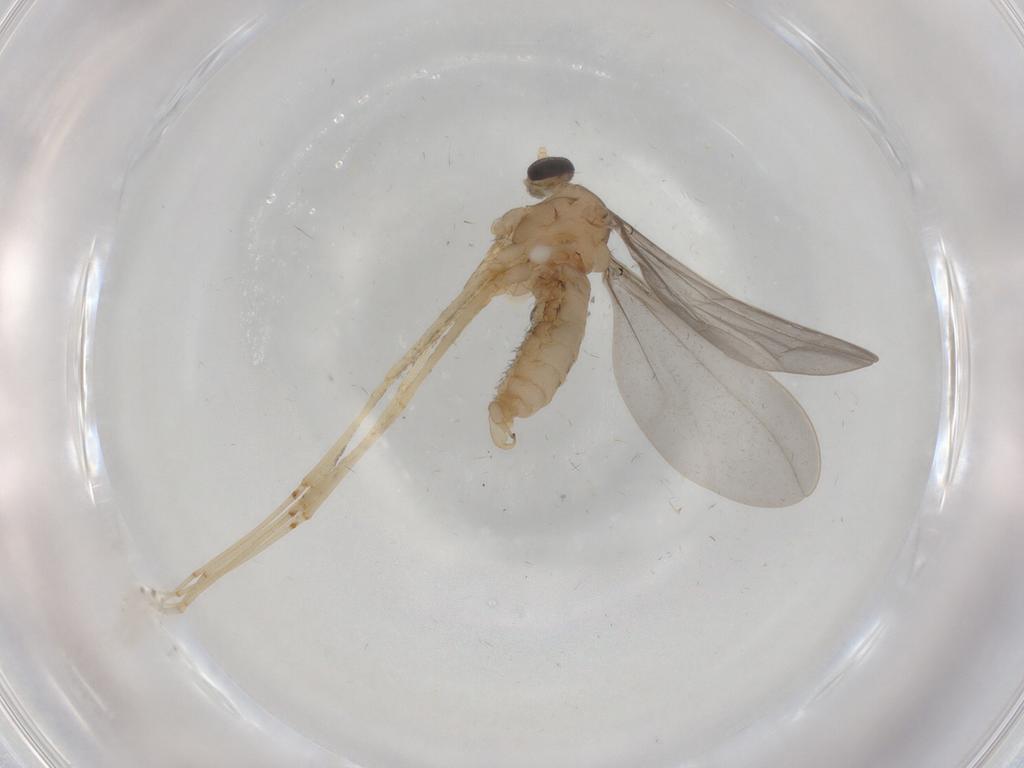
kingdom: Animalia
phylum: Arthropoda
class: Insecta
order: Diptera
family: Cecidomyiidae
